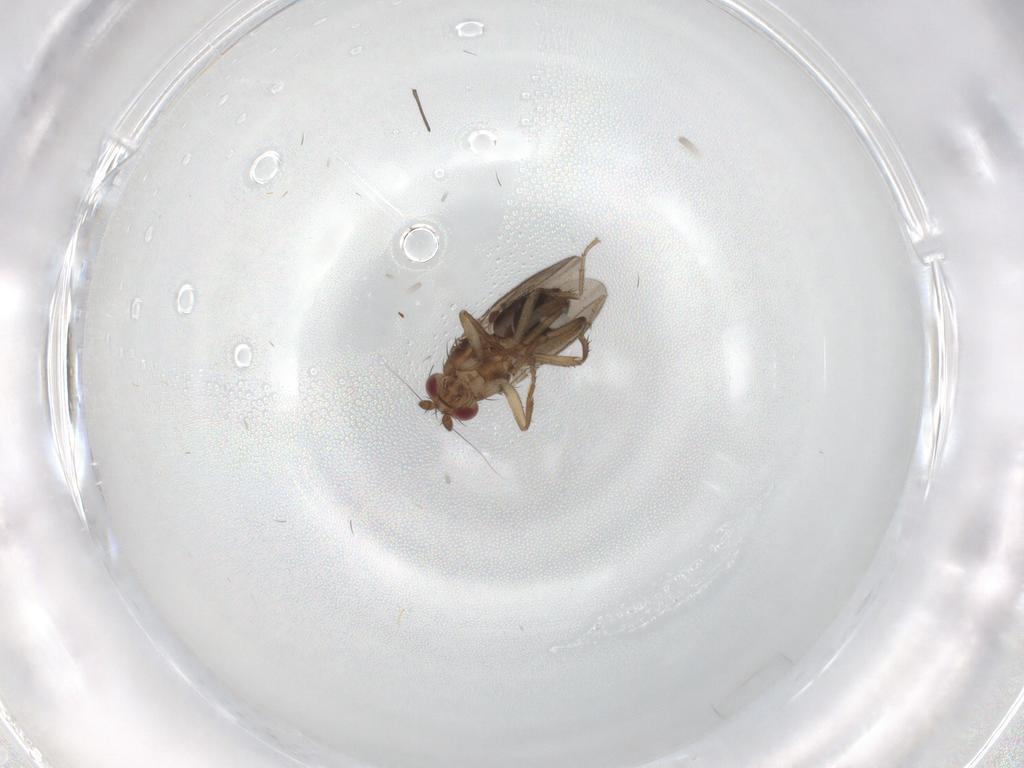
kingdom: Animalia
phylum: Arthropoda
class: Insecta
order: Diptera
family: Sphaeroceridae
